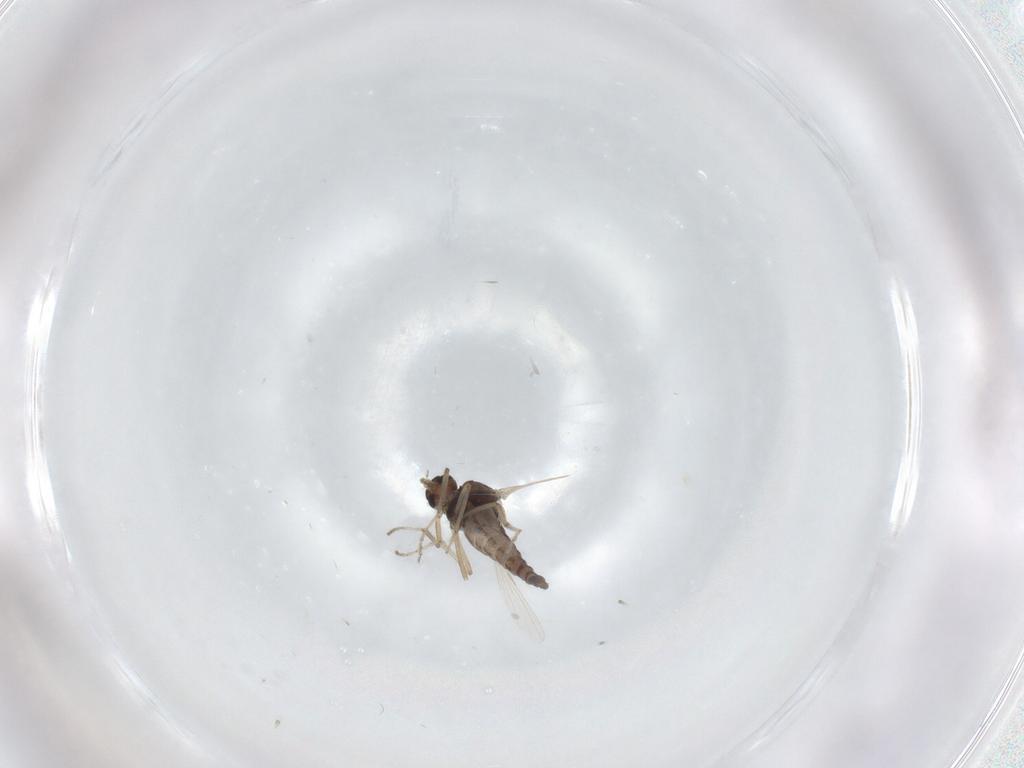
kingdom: Animalia
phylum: Arthropoda
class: Insecta
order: Diptera
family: Ceratopogonidae
